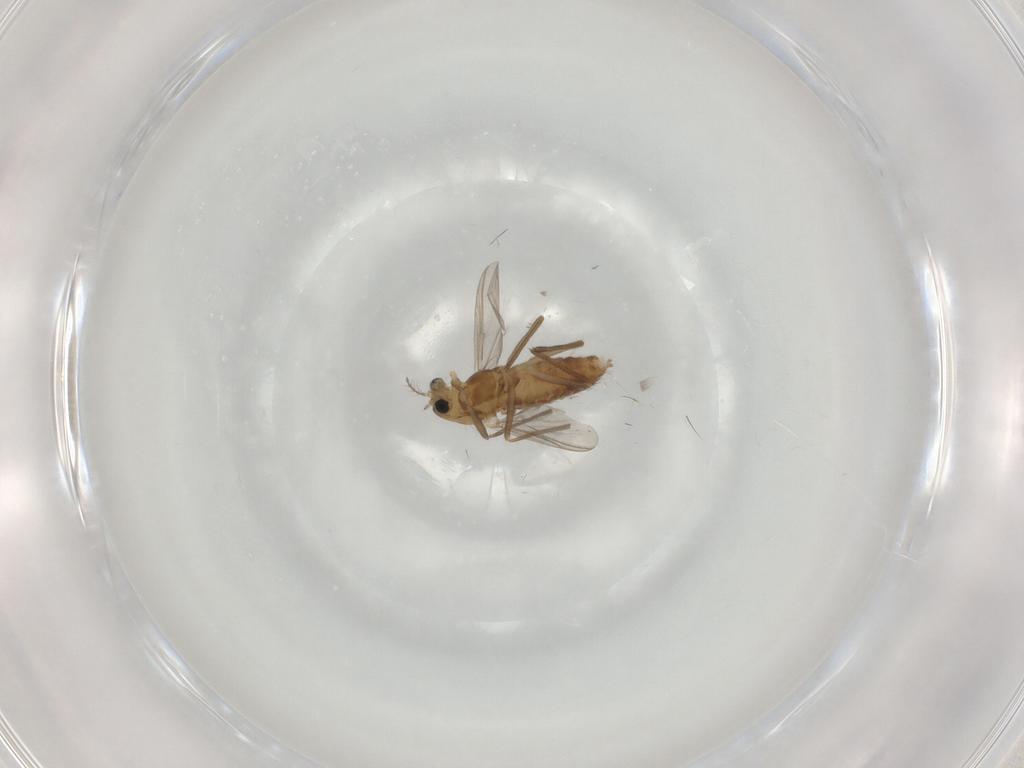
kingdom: Animalia
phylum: Arthropoda
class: Insecta
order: Diptera
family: Chironomidae
